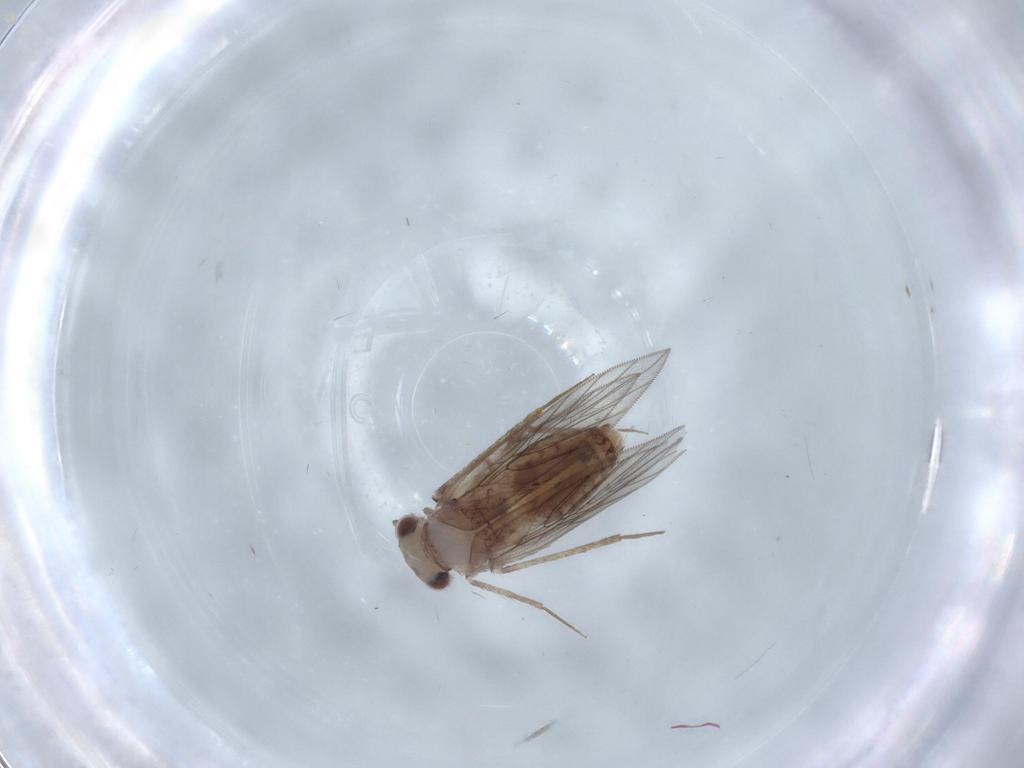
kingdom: Animalia
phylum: Arthropoda
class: Insecta
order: Psocodea
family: Lepidopsocidae
